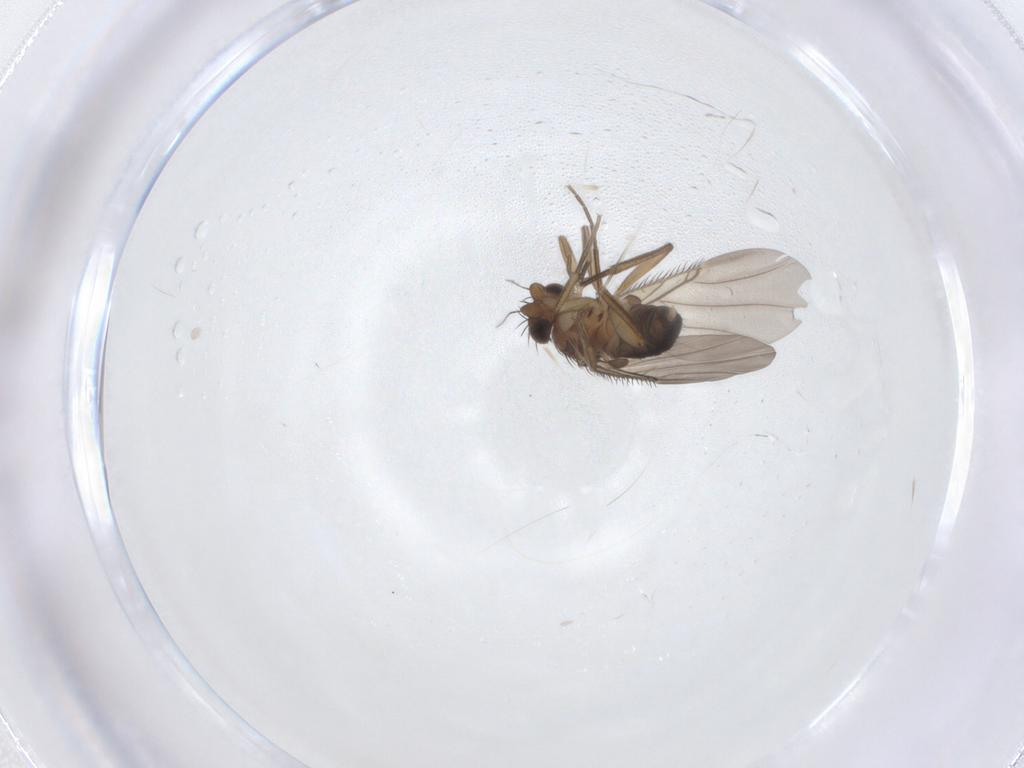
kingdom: Animalia
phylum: Arthropoda
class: Insecta
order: Diptera
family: Phoridae
